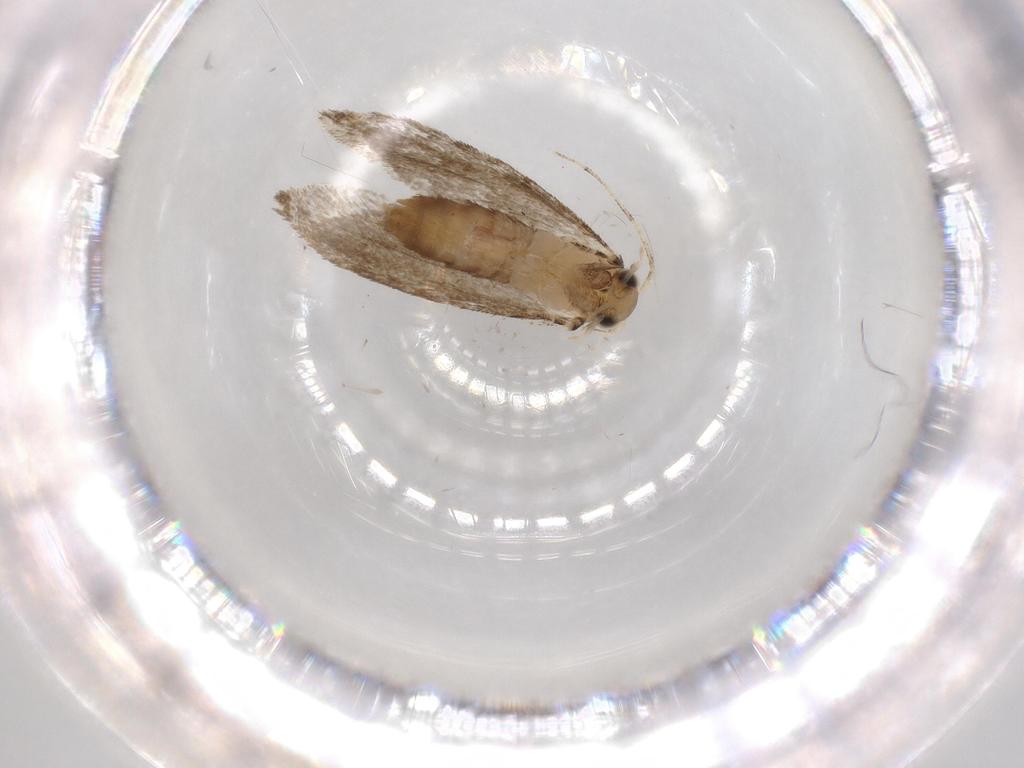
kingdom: Animalia
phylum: Arthropoda
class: Insecta
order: Lepidoptera
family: Tineidae
